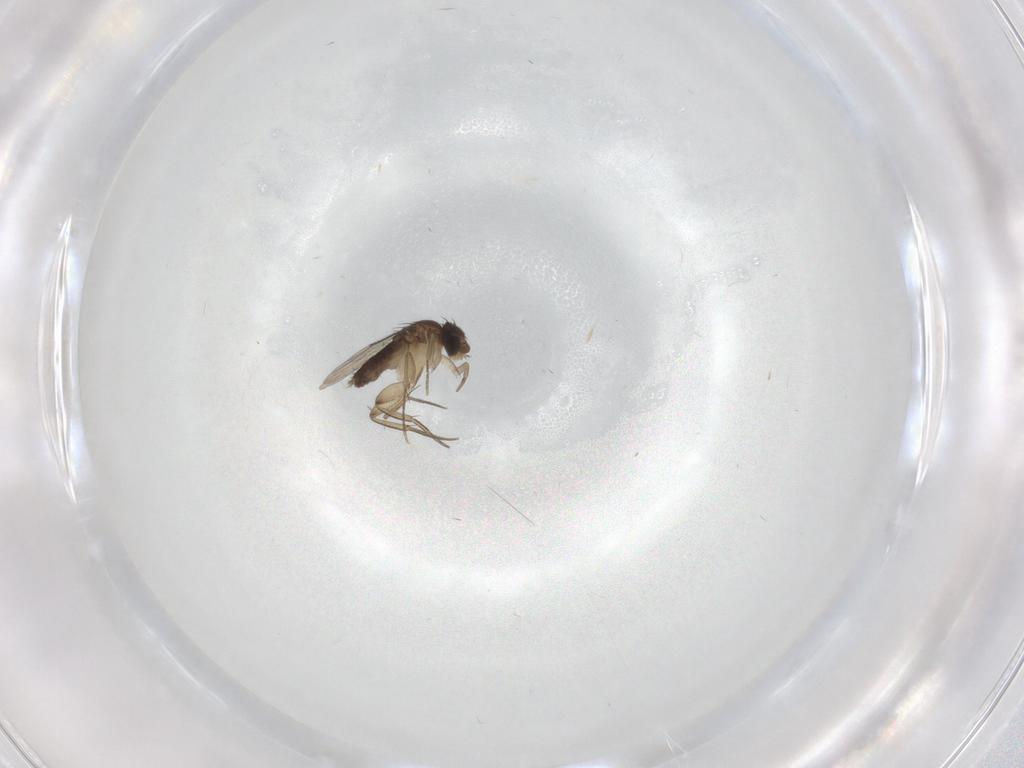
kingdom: Animalia
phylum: Arthropoda
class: Insecta
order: Diptera
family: Phoridae
